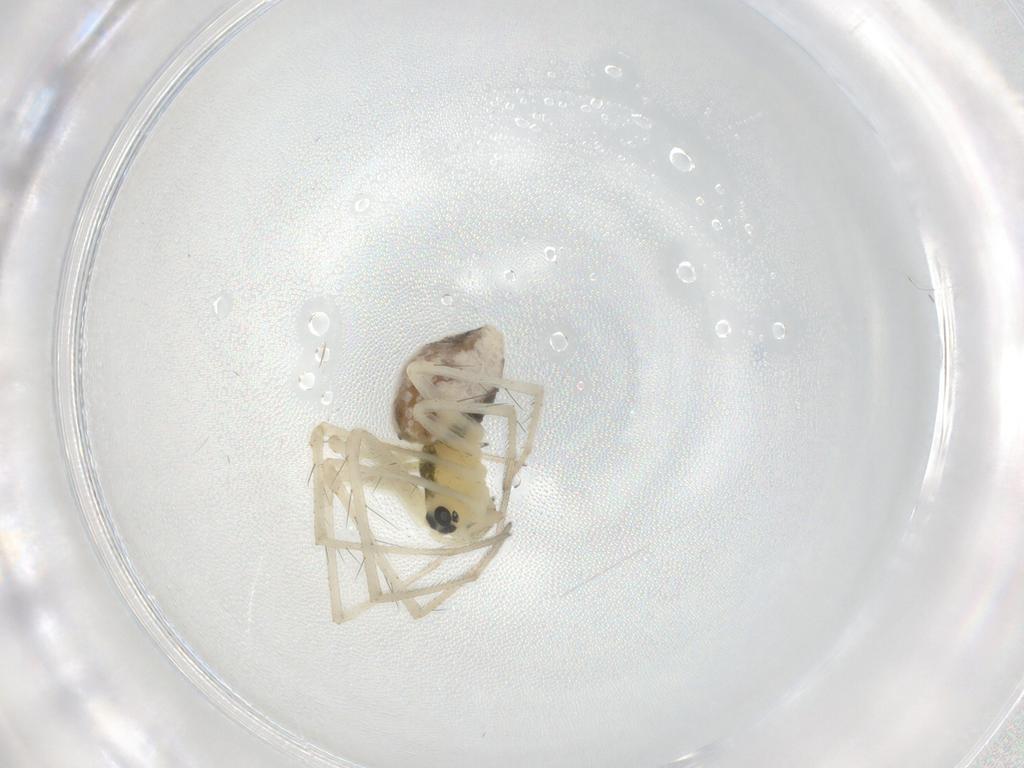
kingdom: Animalia
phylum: Arthropoda
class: Arachnida
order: Araneae
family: Linyphiidae
